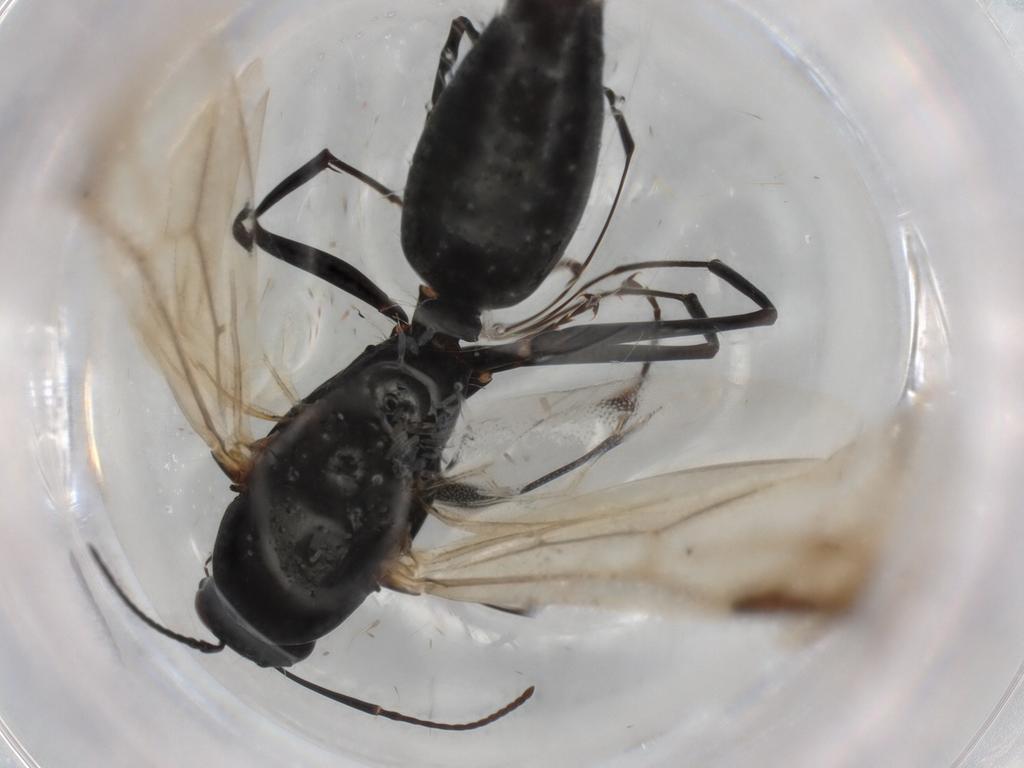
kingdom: Animalia
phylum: Arthropoda
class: Insecta
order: Hymenoptera
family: Formicidae
